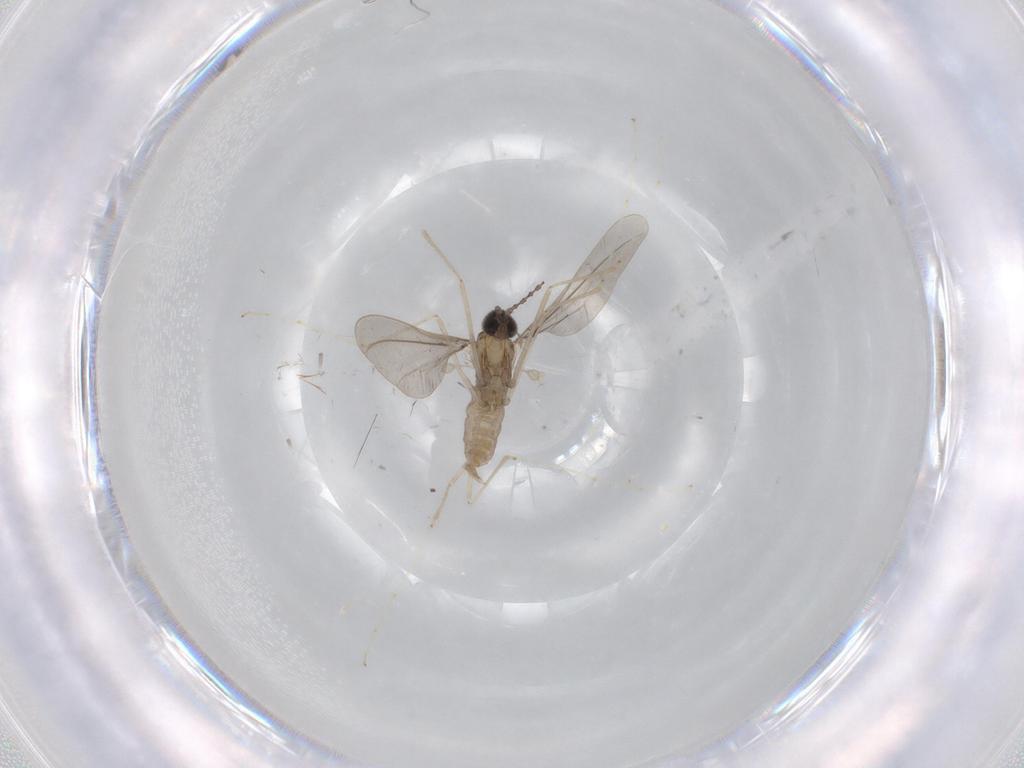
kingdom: Animalia
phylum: Arthropoda
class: Insecta
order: Diptera
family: Cecidomyiidae
